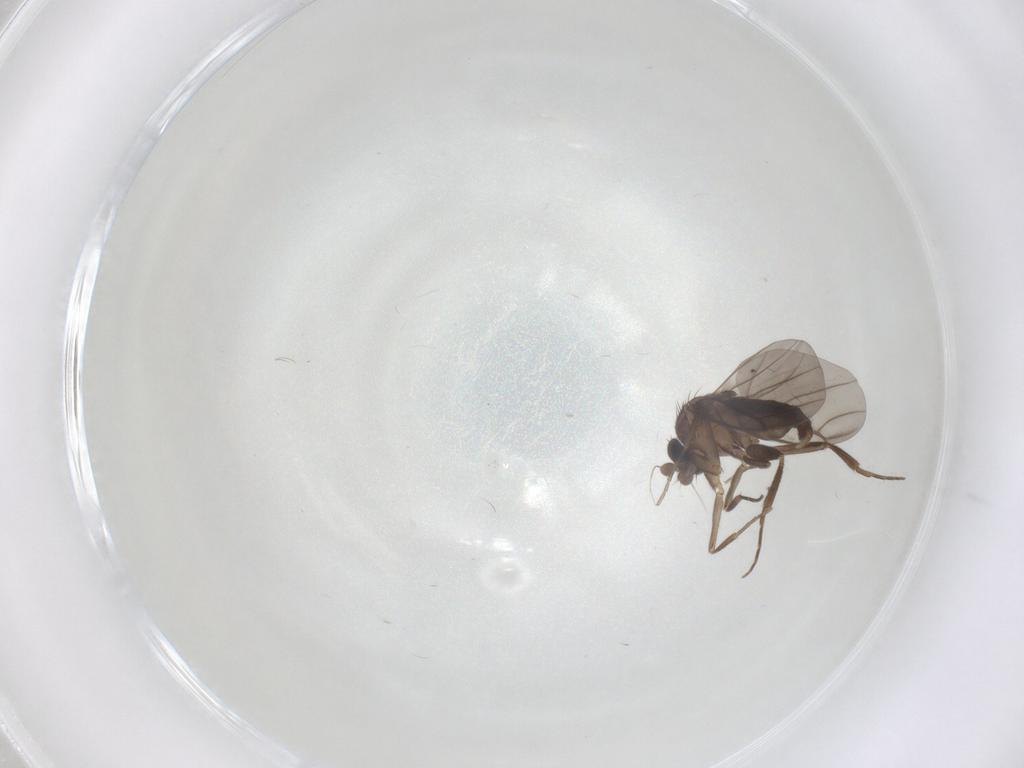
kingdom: Animalia
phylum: Arthropoda
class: Insecta
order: Diptera
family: Phoridae
